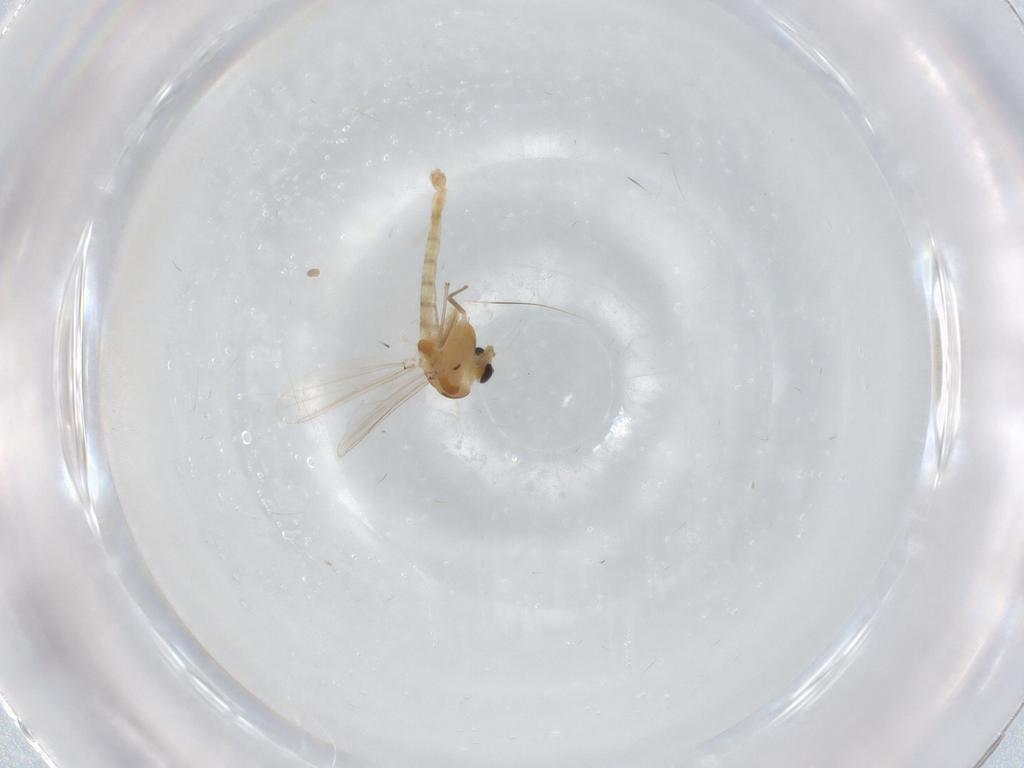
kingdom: Animalia
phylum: Arthropoda
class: Insecta
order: Diptera
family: Chironomidae
